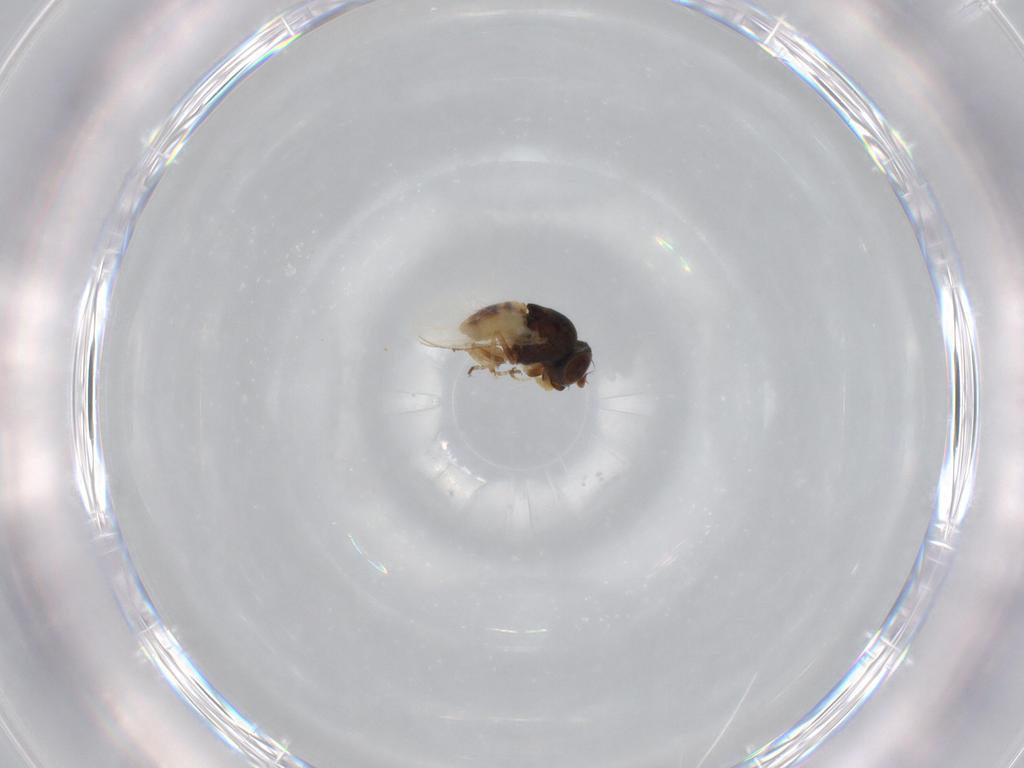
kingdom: Animalia
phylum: Arthropoda
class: Insecta
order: Diptera
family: Ephydridae
